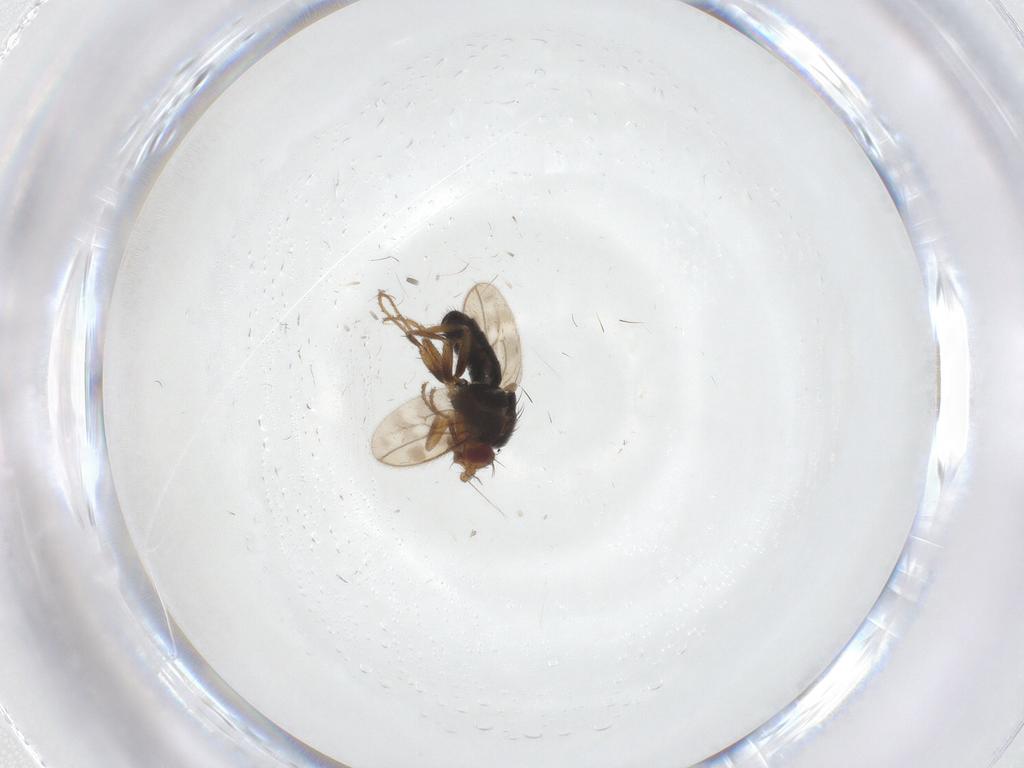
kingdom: Animalia
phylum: Arthropoda
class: Insecta
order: Diptera
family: Sphaeroceridae
